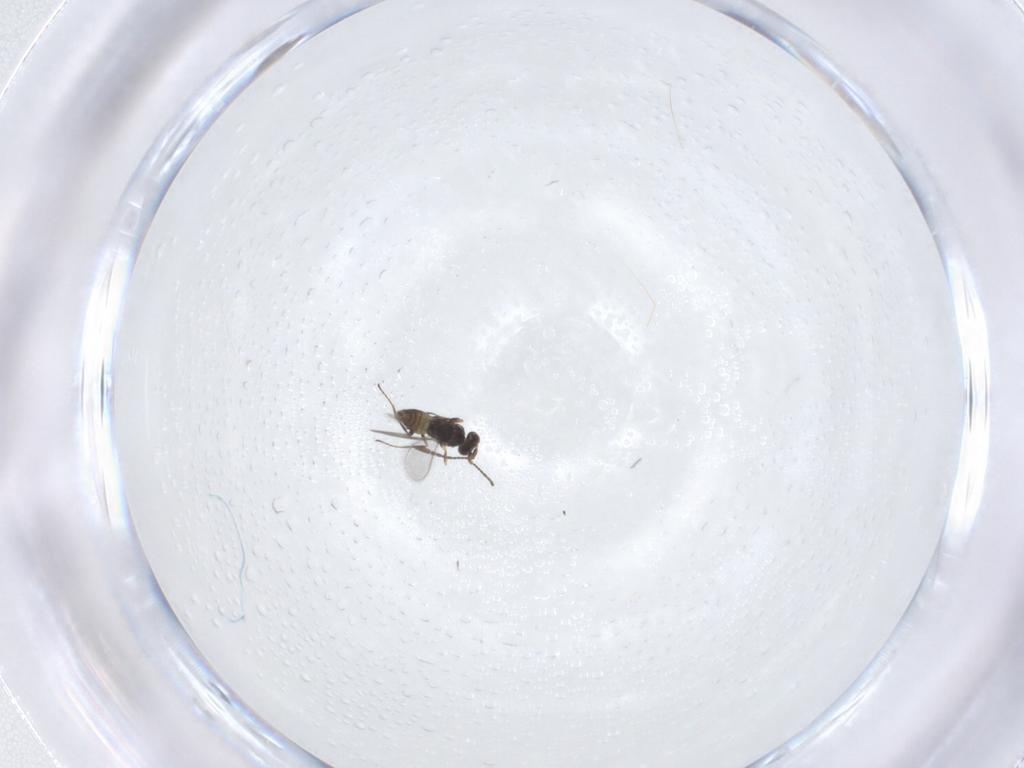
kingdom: Animalia
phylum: Arthropoda
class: Insecta
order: Hymenoptera
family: Mymaridae
